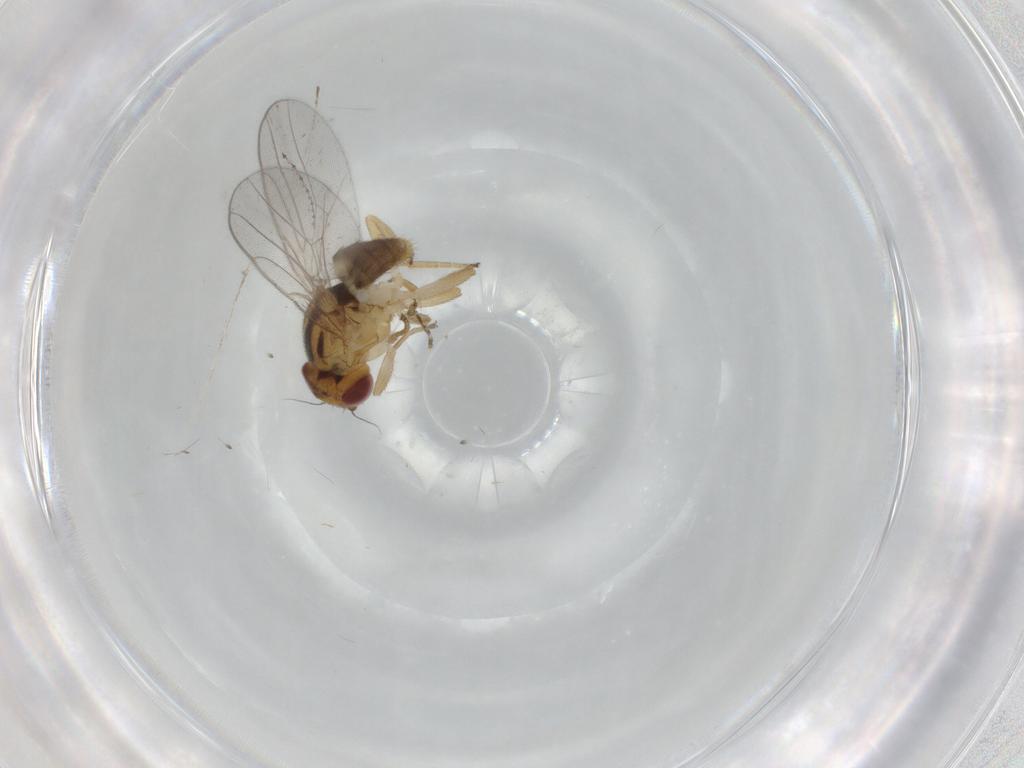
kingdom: Animalia
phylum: Arthropoda
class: Insecta
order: Diptera
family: Chloropidae
